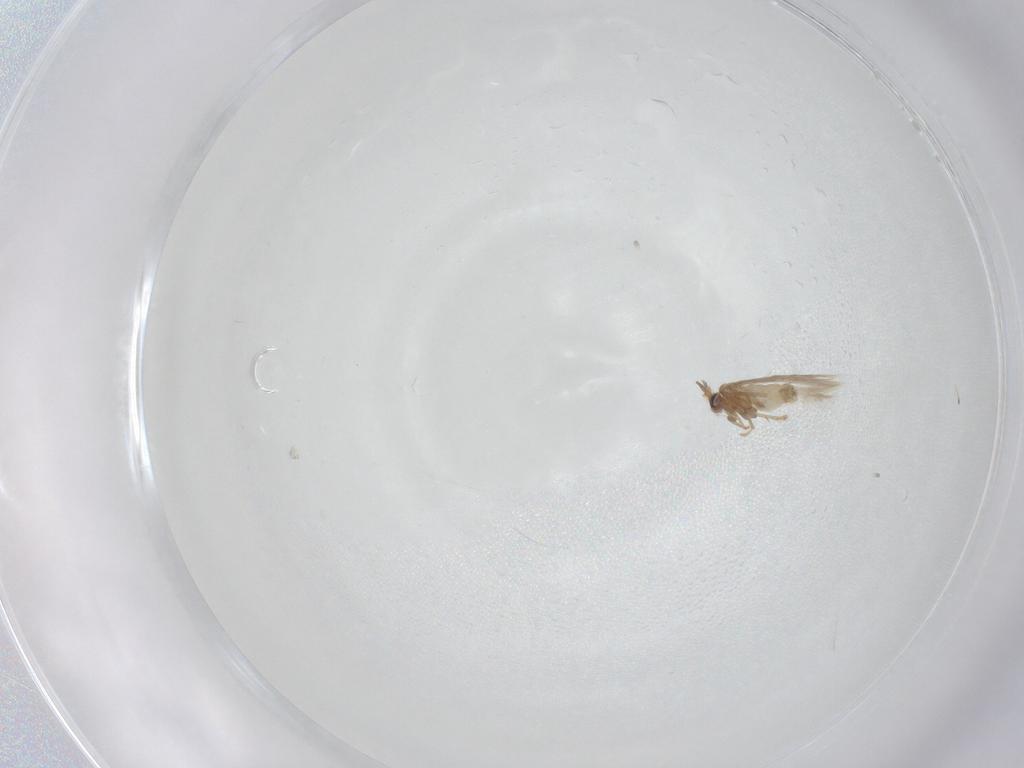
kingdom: Animalia
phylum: Arthropoda
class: Insecta
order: Lepidoptera
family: Nepticulidae
